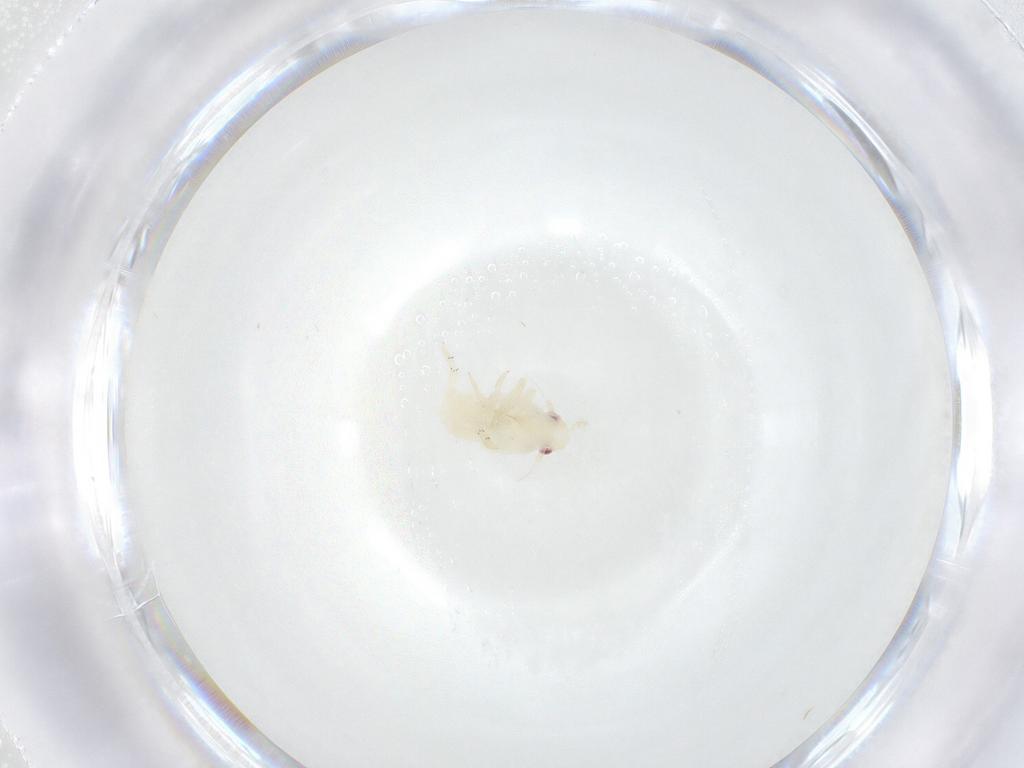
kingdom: Animalia
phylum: Arthropoda
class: Insecta
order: Hemiptera
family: Flatidae
